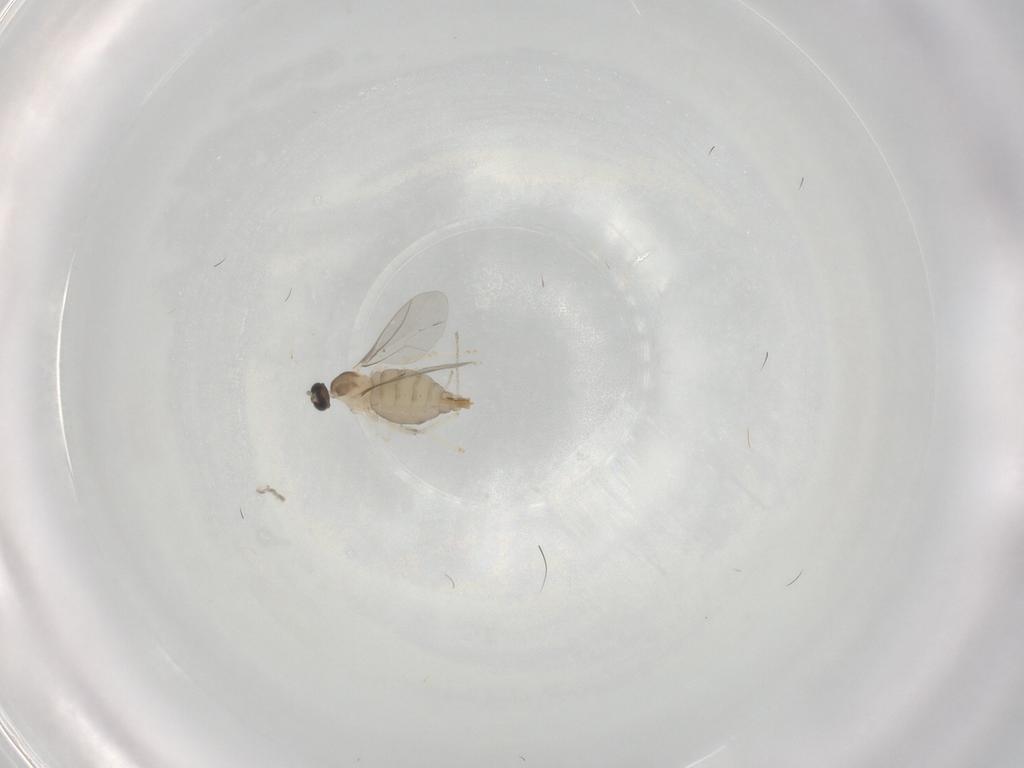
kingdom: Animalia
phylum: Arthropoda
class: Insecta
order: Diptera
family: Cecidomyiidae
